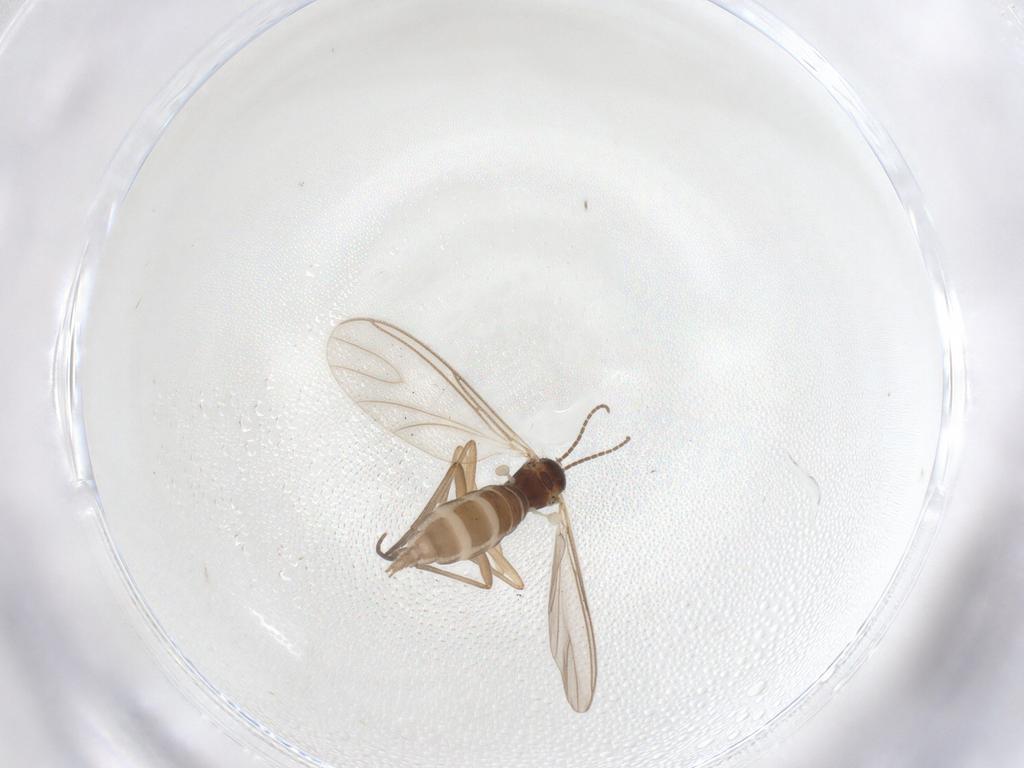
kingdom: Animalia
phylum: Arthropoda
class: Insecta
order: Diptera
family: Sciaridae
